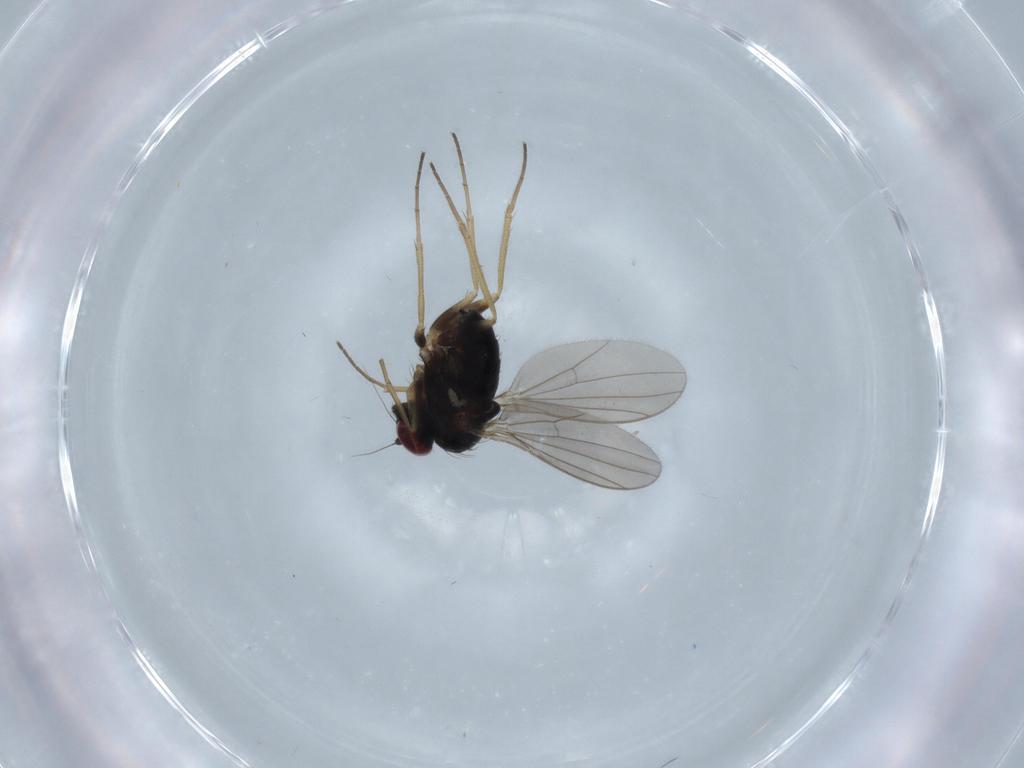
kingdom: Animalia
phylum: Arthropoda
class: Insecta
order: Diptera
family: Dolichopodidae
